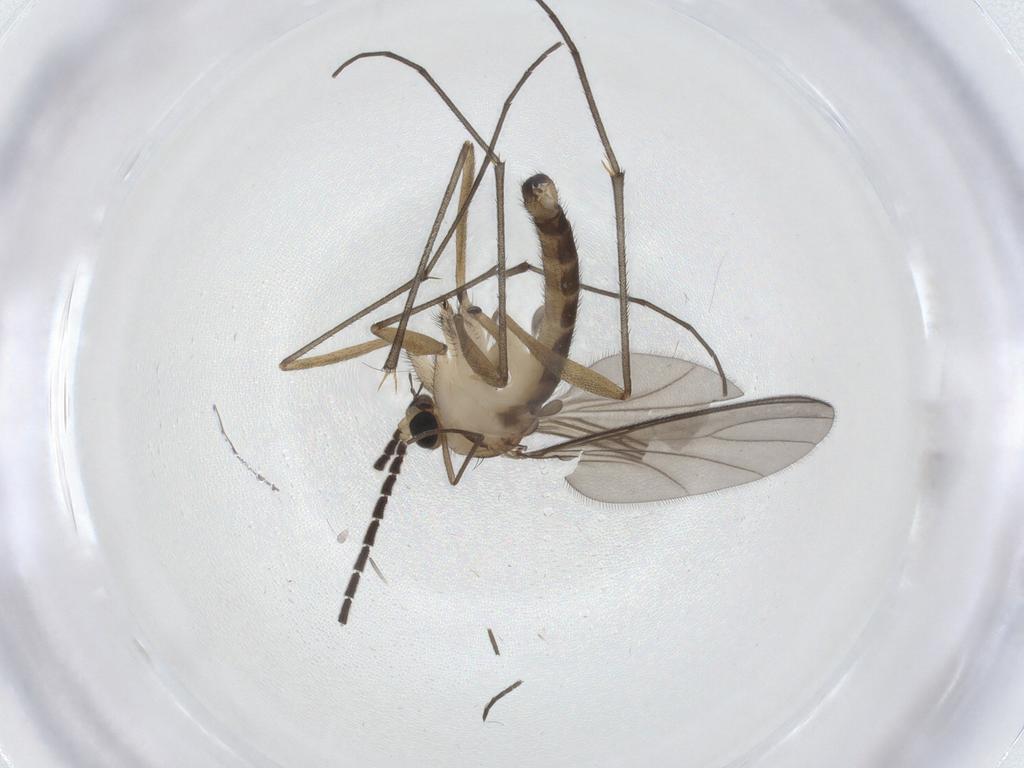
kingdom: Animalia
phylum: Arthropoda
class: Insecta
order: Diptera
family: Sciaridae
